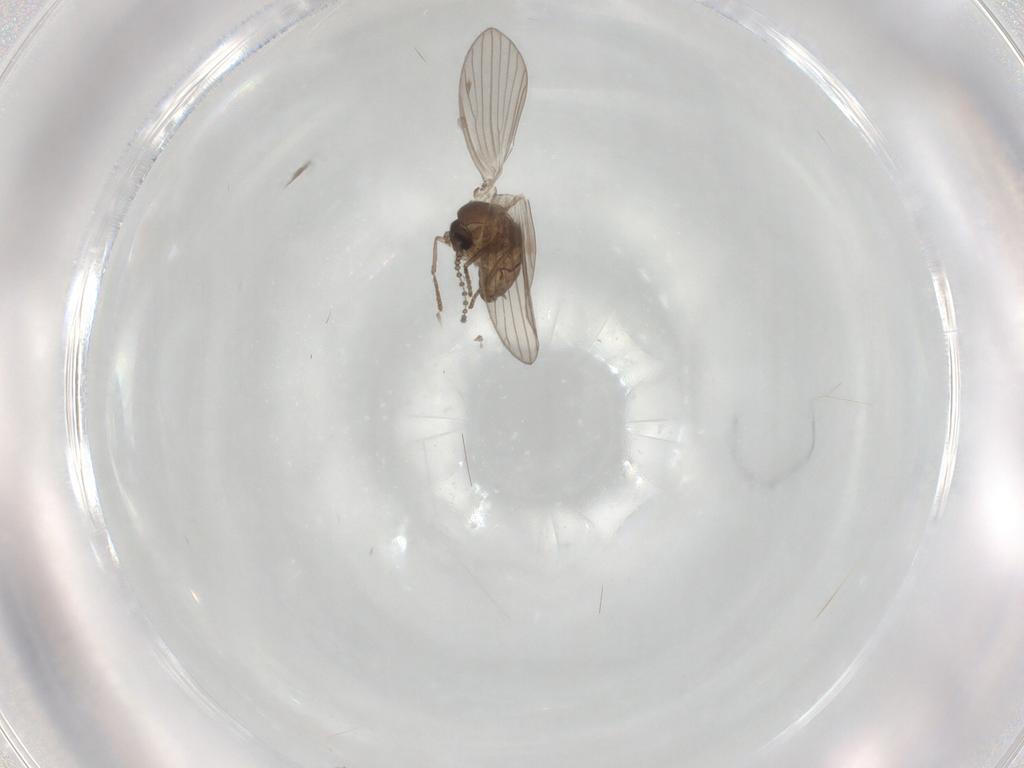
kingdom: Animalia
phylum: Arthropoda
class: Insecta
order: Diptera
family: Psychodidae
